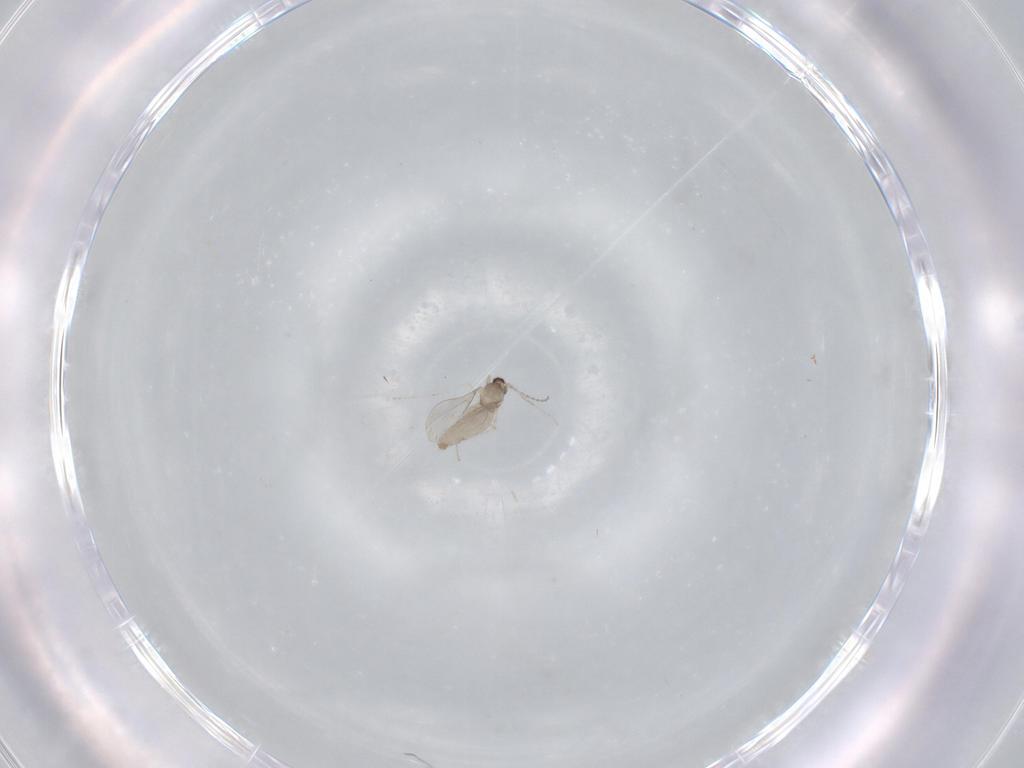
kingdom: Animalia
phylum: Arthropoda
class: Insecta
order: Diptera
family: Cecidomyiidae
